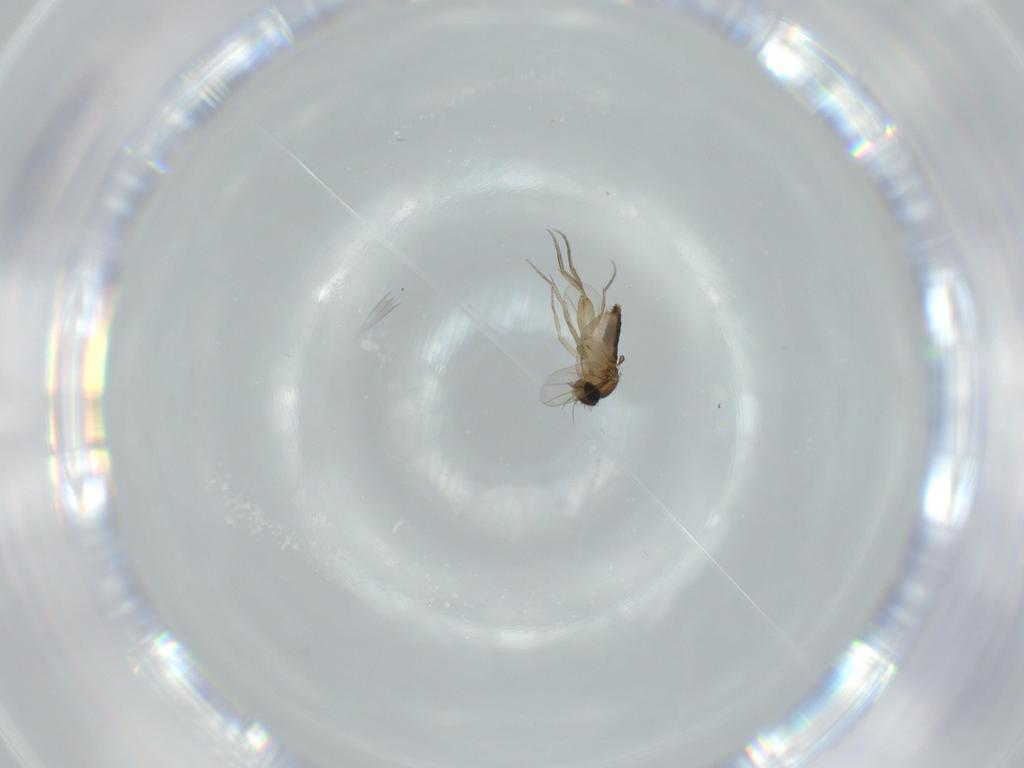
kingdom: Animalia
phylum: Arthropoda
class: Insecta
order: Diptera
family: Phoridae
